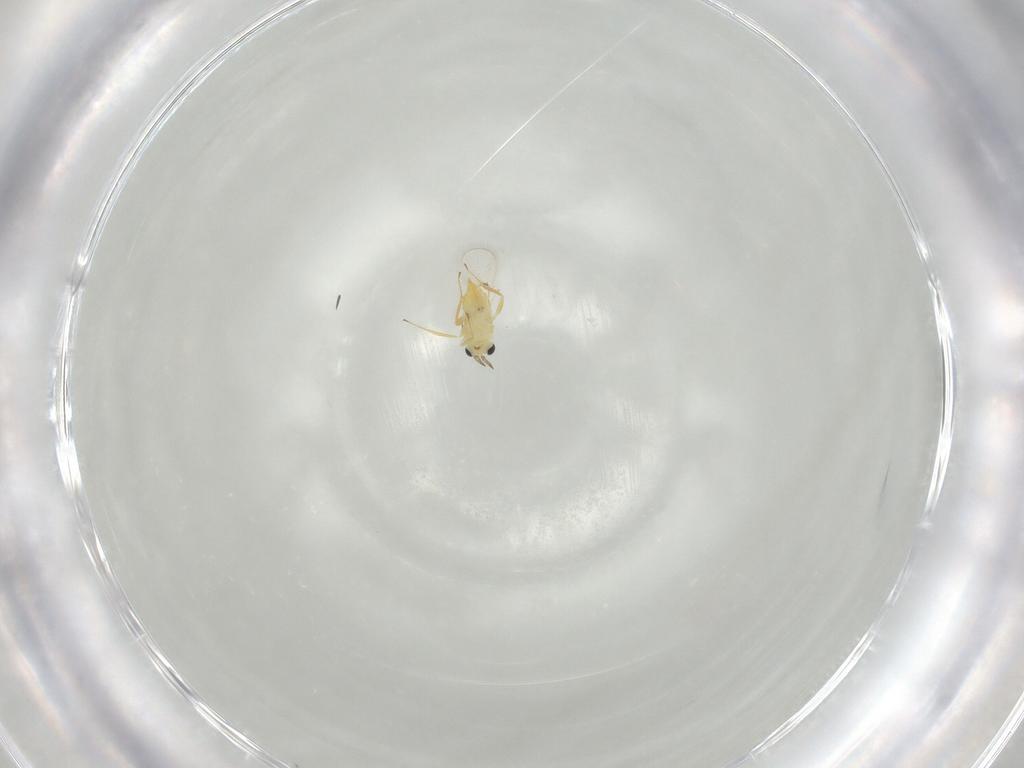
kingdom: Animalia
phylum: Arthropoda
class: Insecta
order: Hymenoptera
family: Trichogrammatidae
